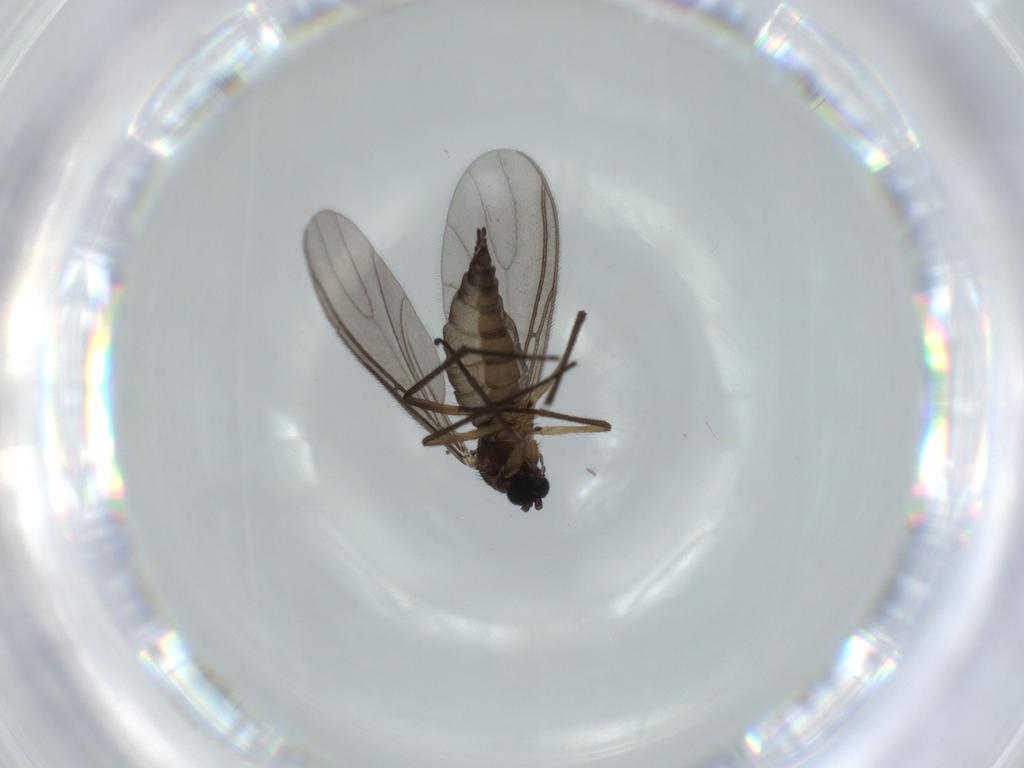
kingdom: Animalia
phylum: Arthropoda
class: Insecta
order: Diptera
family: Sciaridae
